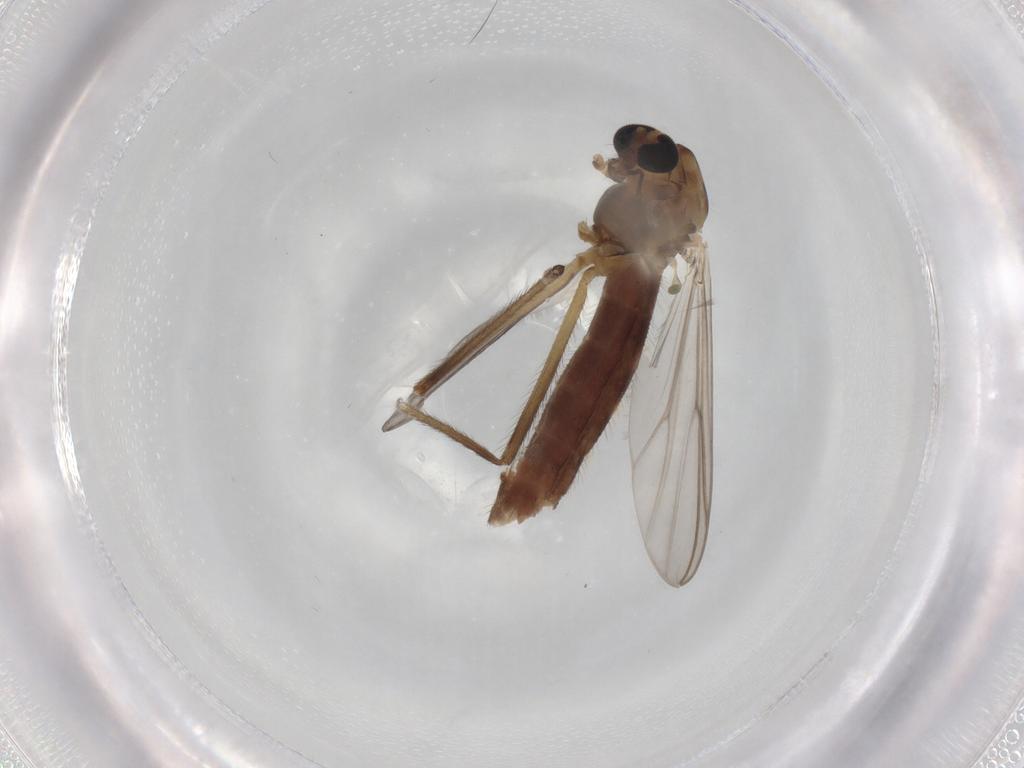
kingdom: Animalia
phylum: Arthropoda
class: Insecta
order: Diptera
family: Chironomidae
